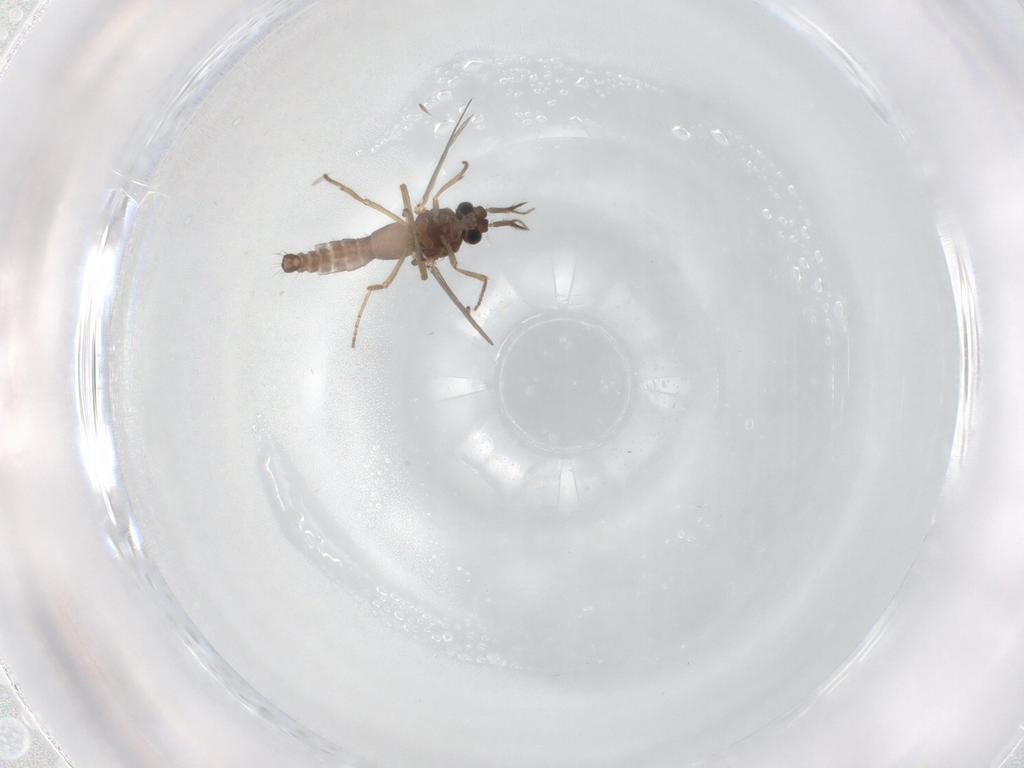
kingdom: Animalia
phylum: Arthropoda
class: Insecta
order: Diptera
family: Ceratopogonidae
